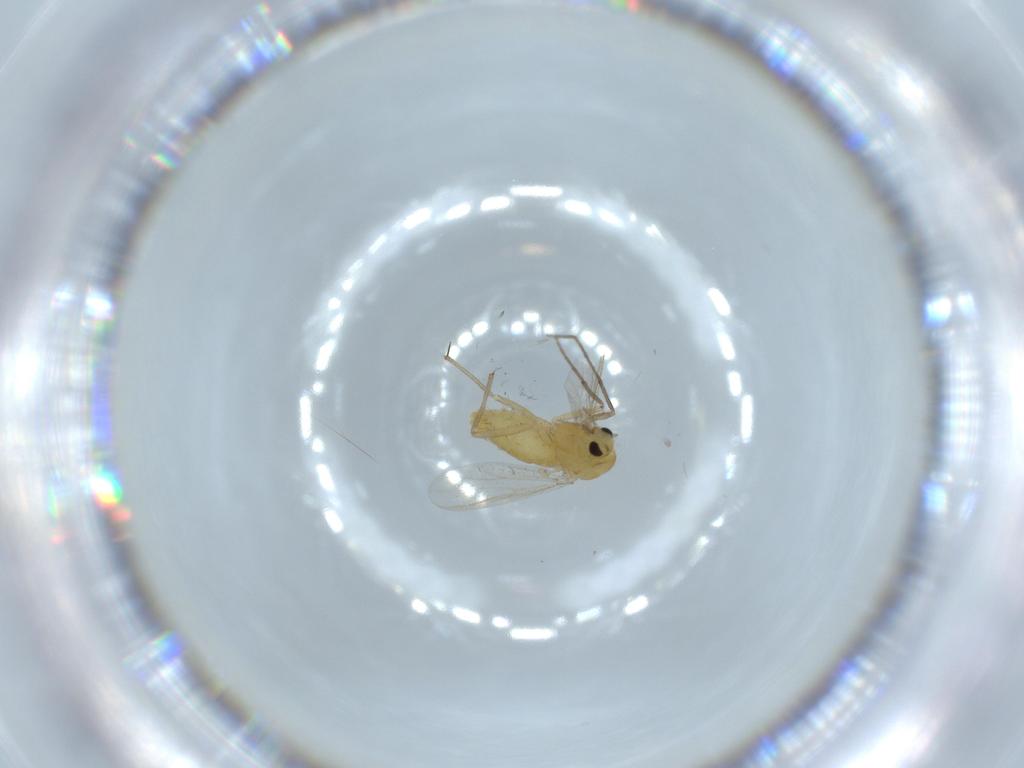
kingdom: Animalia
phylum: Arthropoda
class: Insecta
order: Diptera
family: Chironomidae
